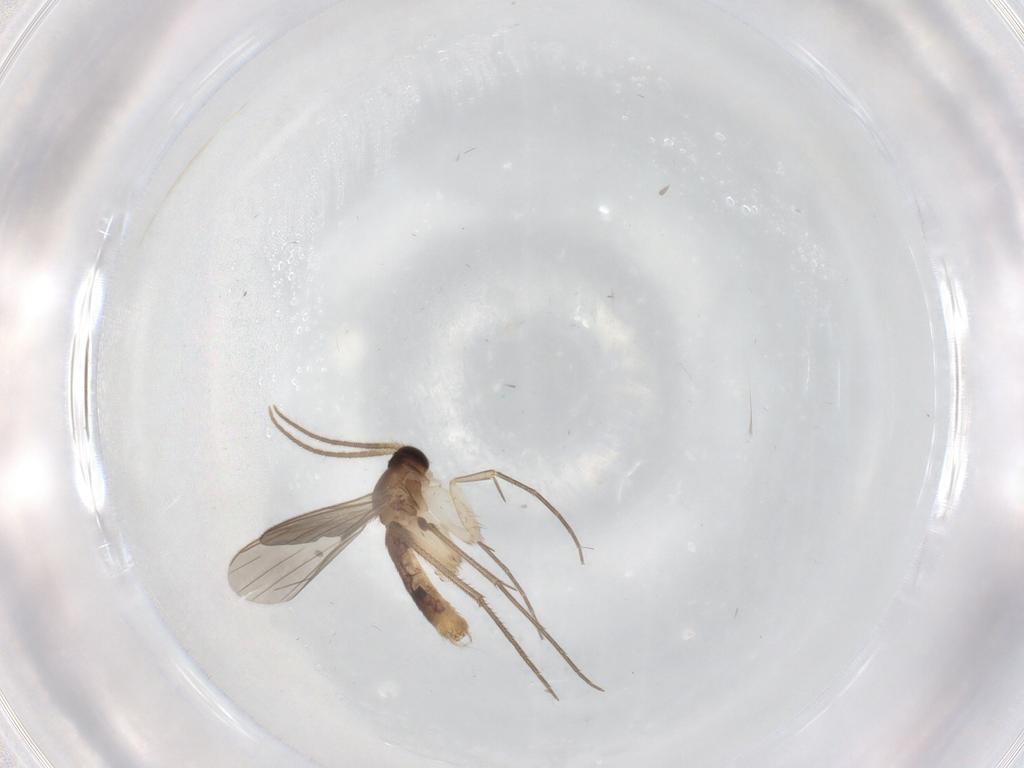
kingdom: Animalia
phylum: Arthropoda
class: Insecta
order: Diptera
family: Mycetophilidae
